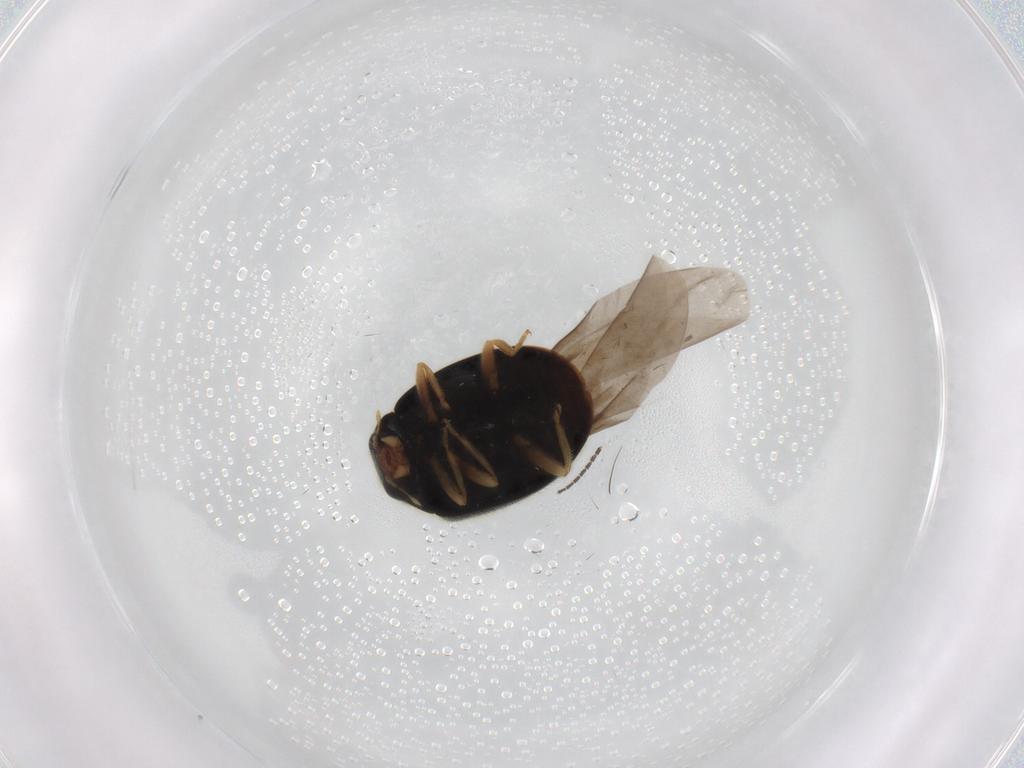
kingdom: Animalia
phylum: Arthropoda
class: Insecta
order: Coleoptera
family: Coccinellidae
